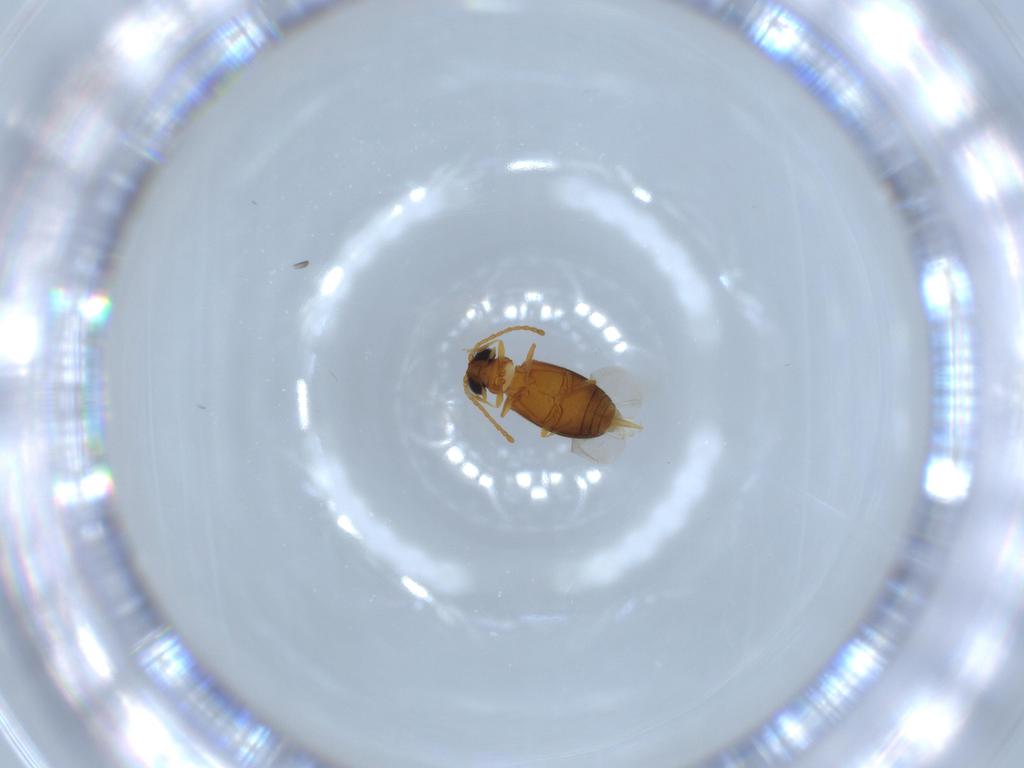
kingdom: Animalia
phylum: Arthropoda
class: Insecta
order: Coleoptera
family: Aderidae
